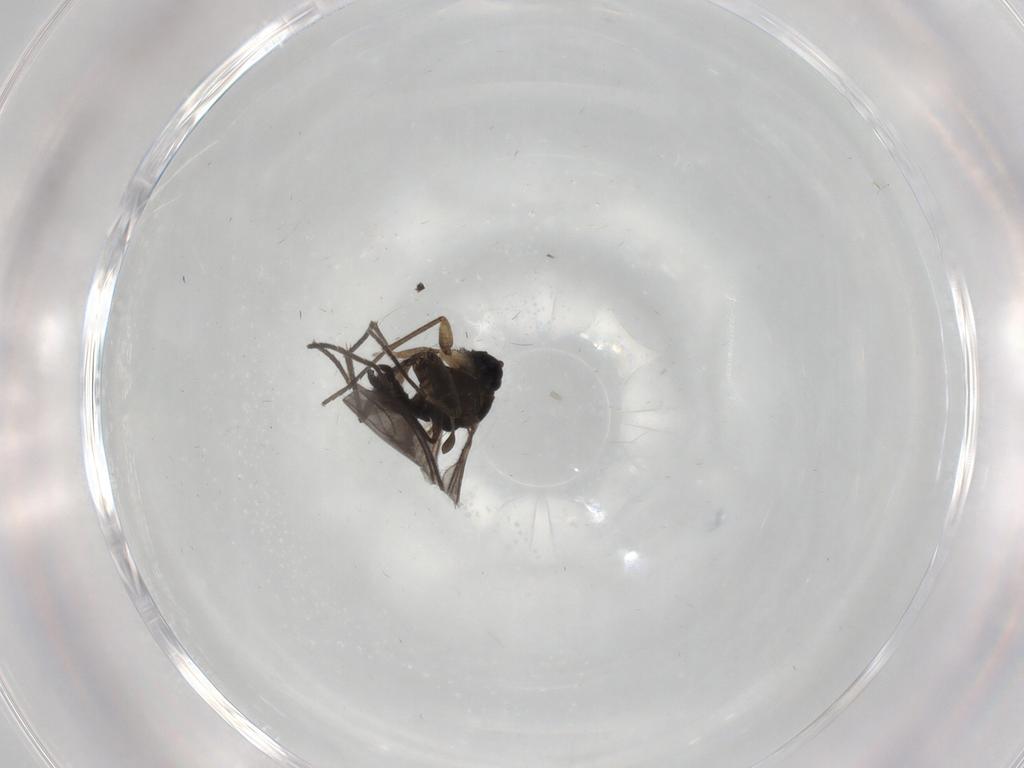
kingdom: Animalia
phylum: Arthropoda
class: Insecta
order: Diptera
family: Sciaridae
